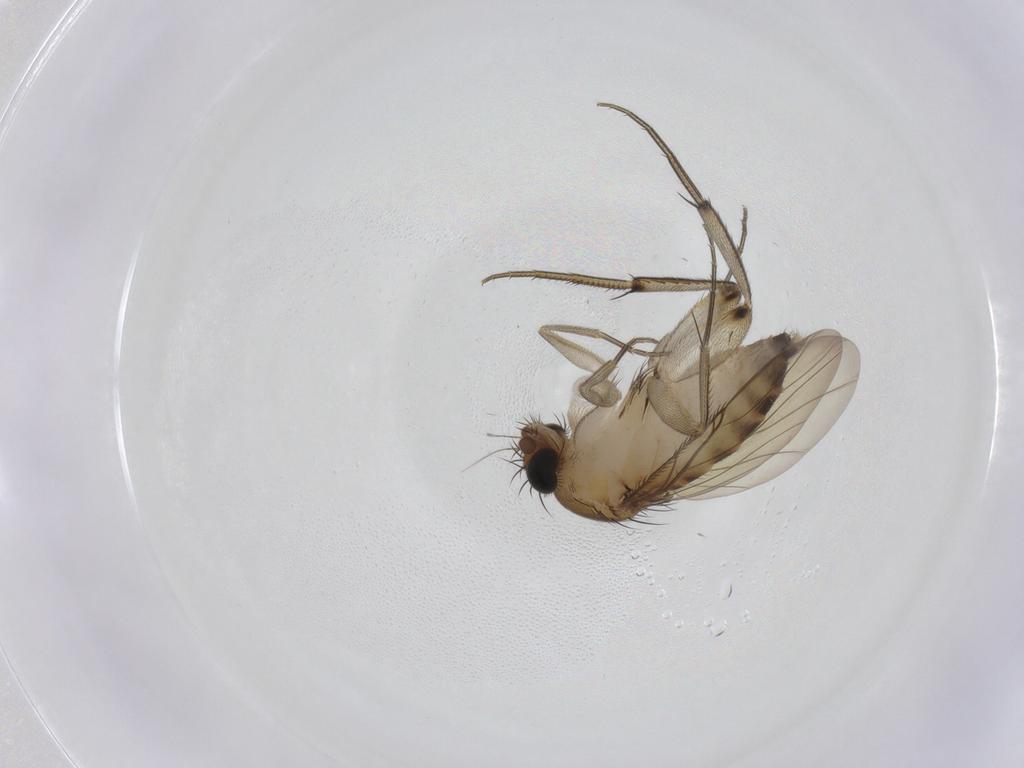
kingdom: Animalia
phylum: Arthropoda
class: Insecta
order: Diptera
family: Phoridae
